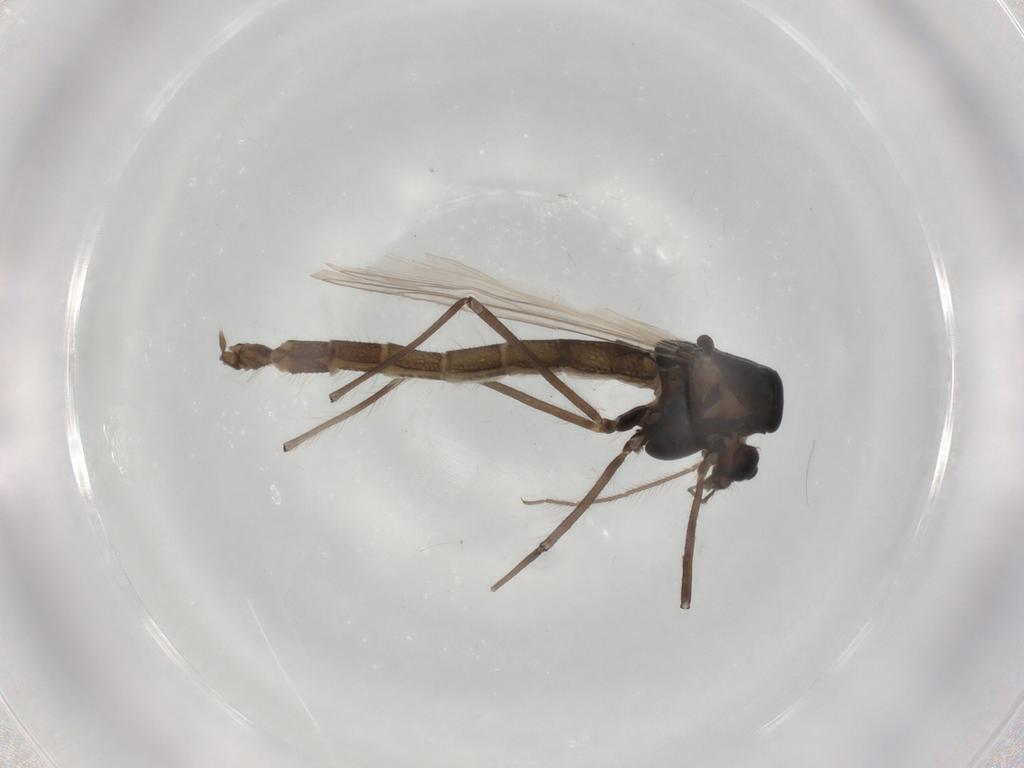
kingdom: Animalia
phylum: Arthropoda
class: Insecta
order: Diptera
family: Chironomidae
